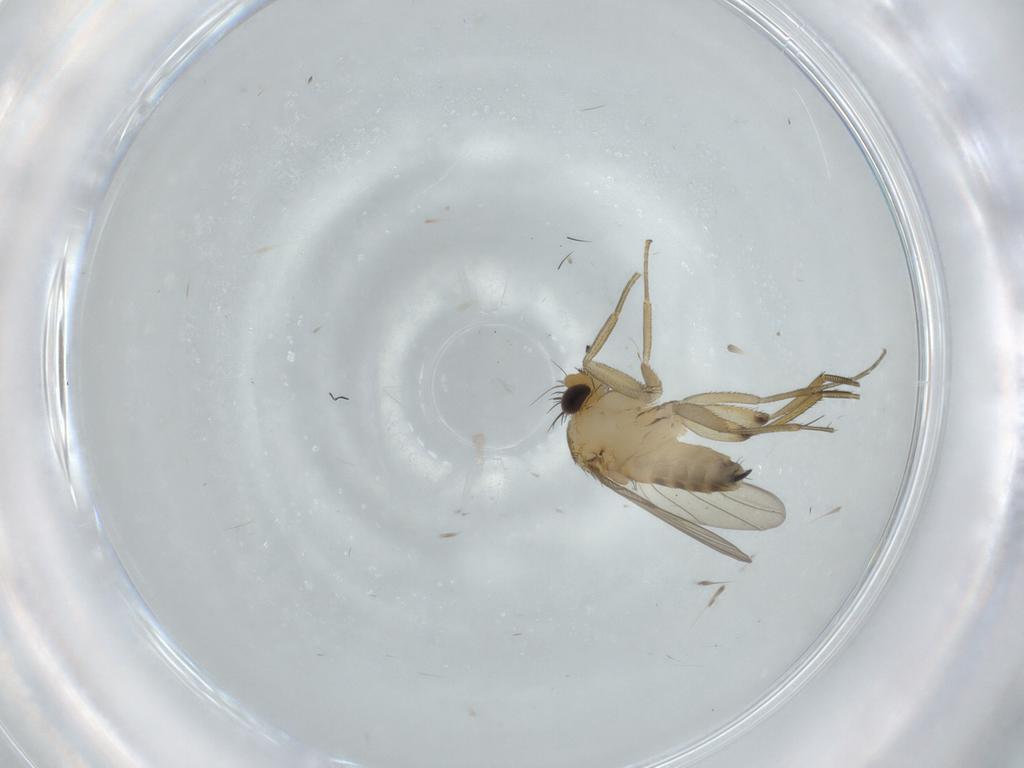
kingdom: Animalia
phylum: Arthropoda
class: Insecta
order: Diptera
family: Phoridae
